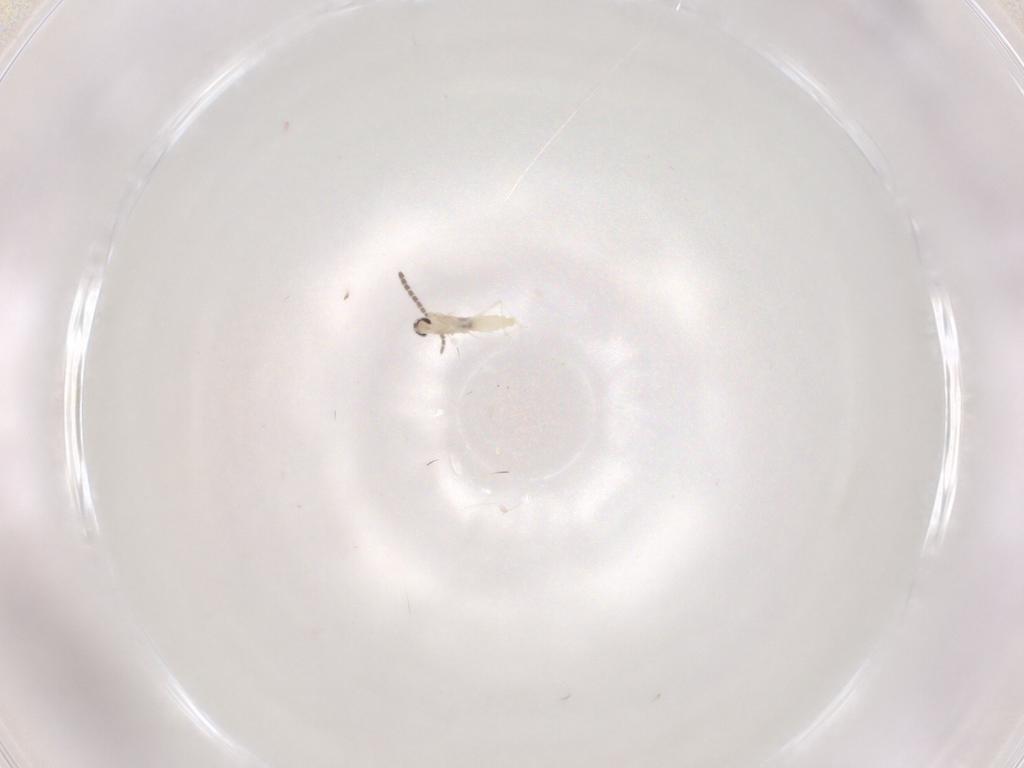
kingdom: Animalia
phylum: Arthropoda
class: Insecta
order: Diptera
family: Cecidomyiidae
